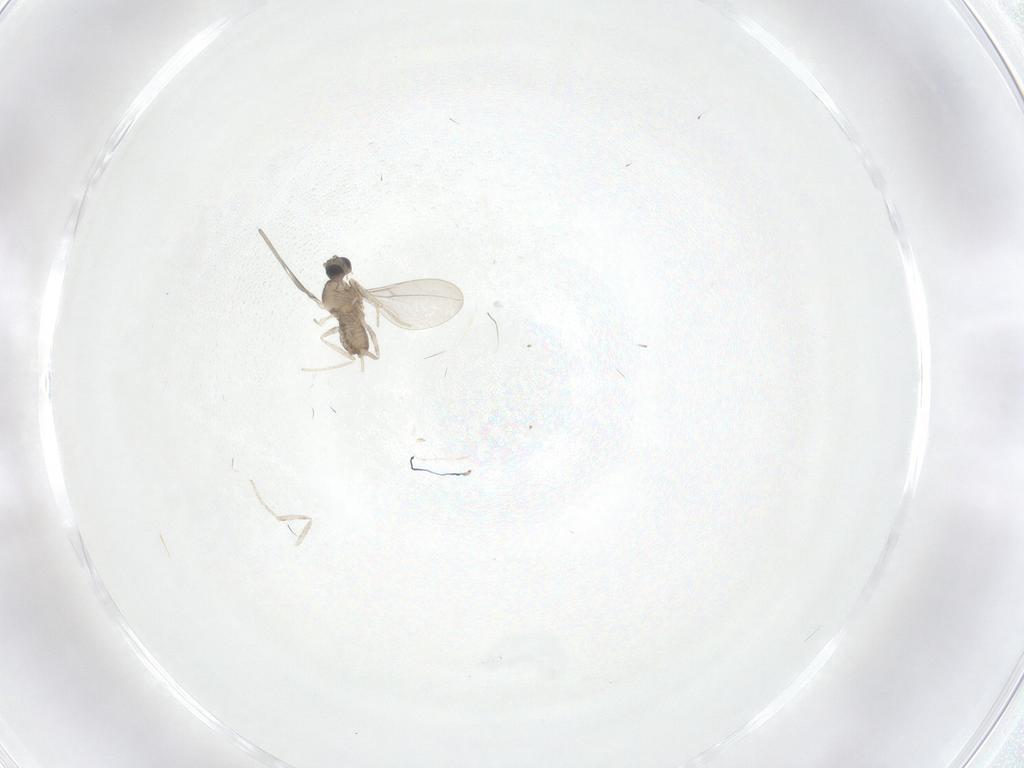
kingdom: Animalia
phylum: Arthropoda
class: Insecta
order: Diptera
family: Cecidomyiidae
